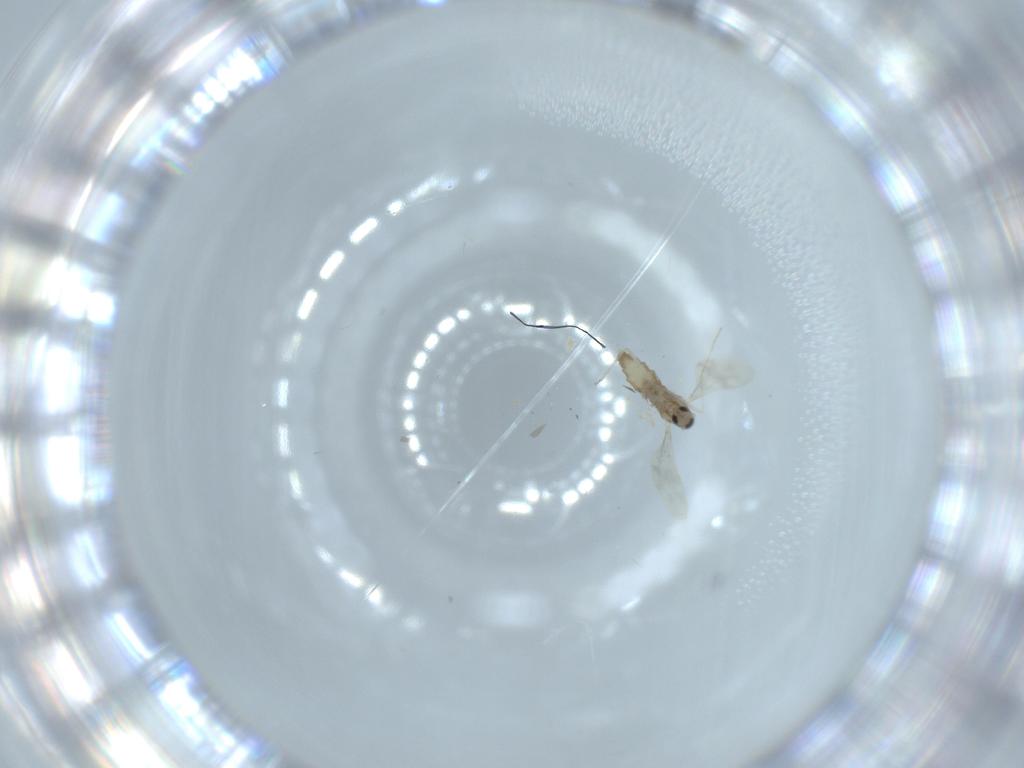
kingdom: Animalia
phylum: Arthropoda
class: Insecta
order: Diptera
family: Cecidomyiidae
